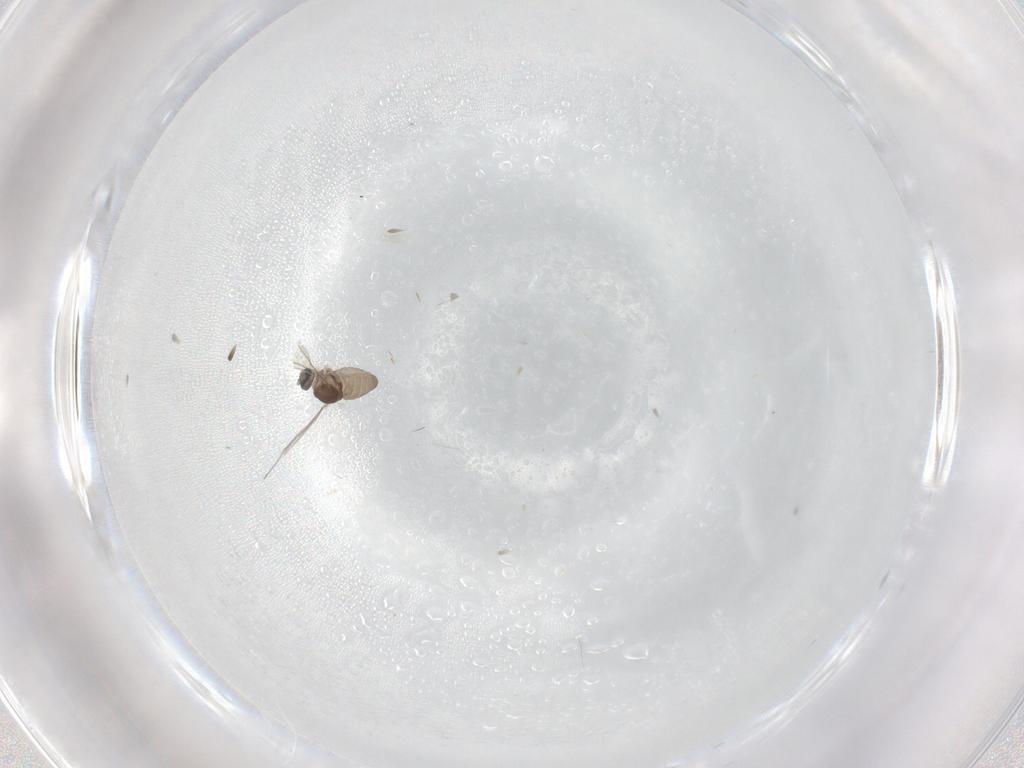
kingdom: Animalia
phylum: Arthropoda
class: Insecta
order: Diptera
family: Cecidomyiidae
